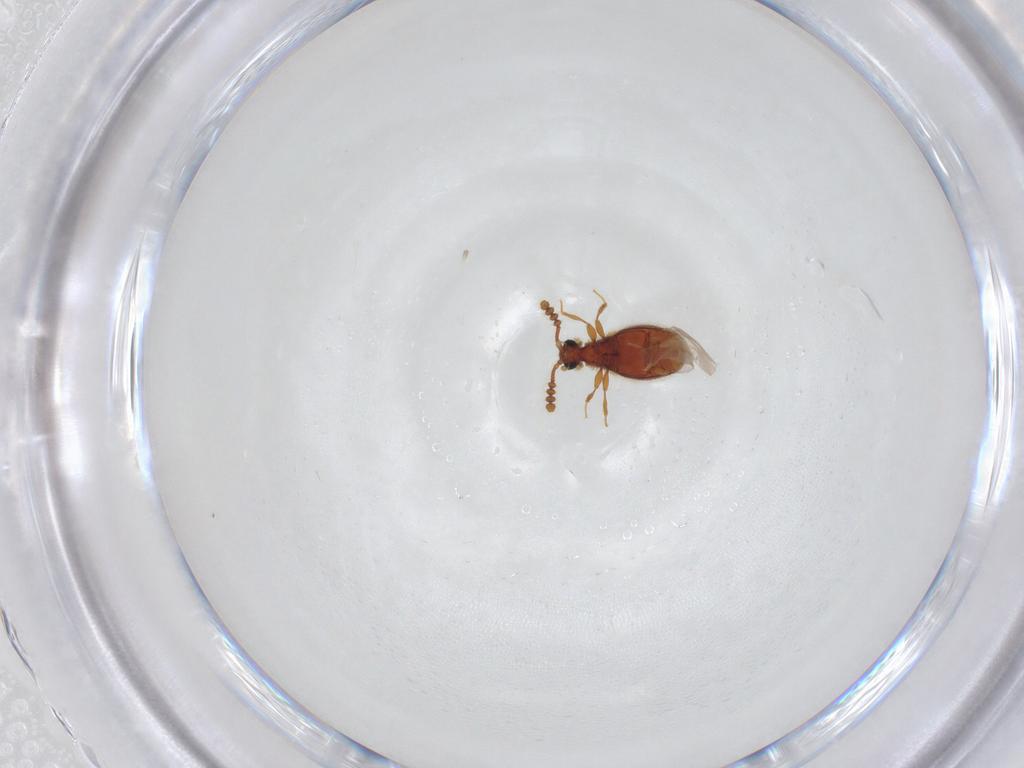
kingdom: Animalia
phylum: Arthropoda
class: Insecta
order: Coleoptera
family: Staphylinidae
